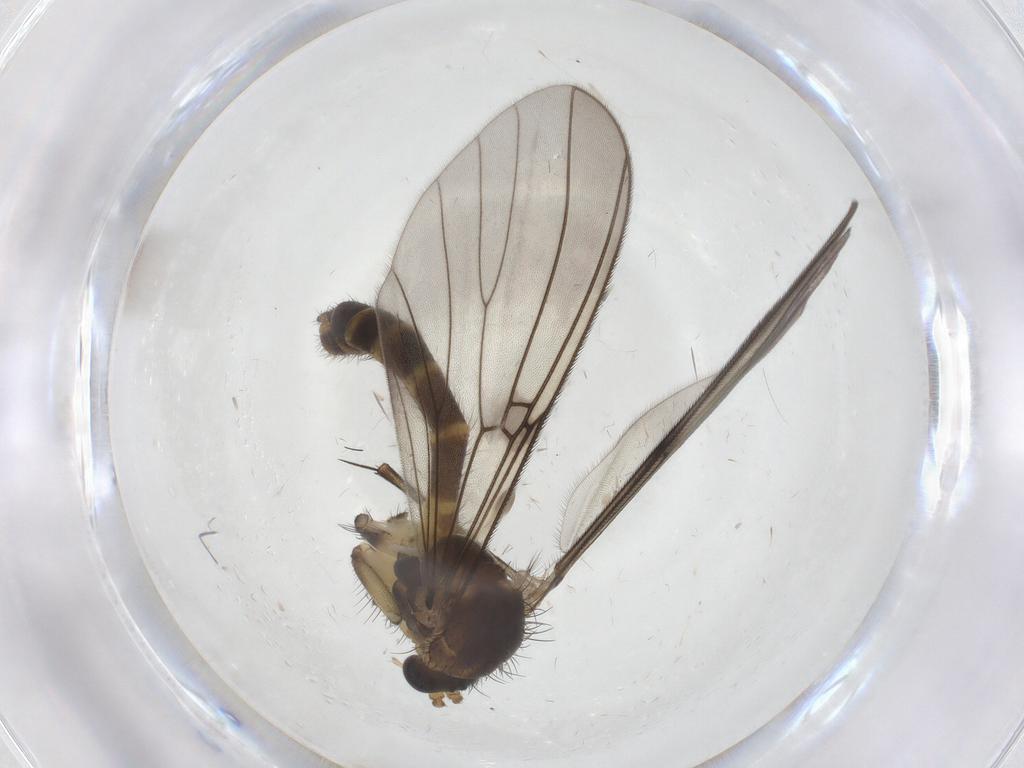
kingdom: Animalia
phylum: Arthropoda
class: Insecta
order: Diptera
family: Mycetophilidae
